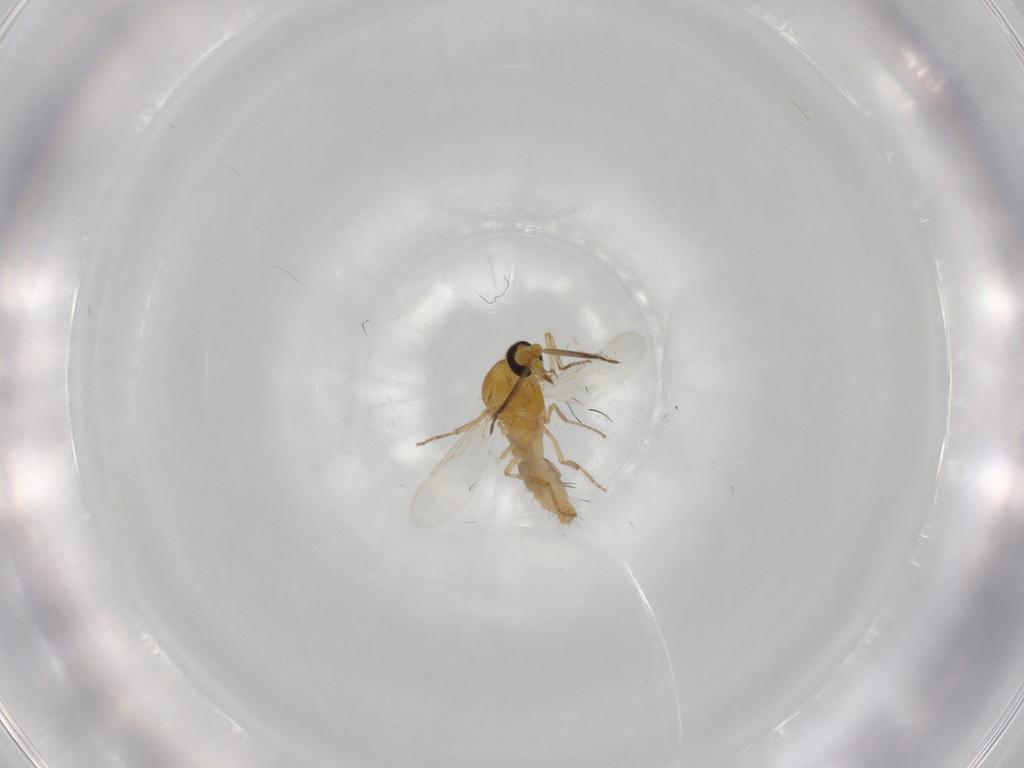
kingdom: Animalia
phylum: Arthropoda
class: Insecta
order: Diptera
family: Ceratopogonidae
